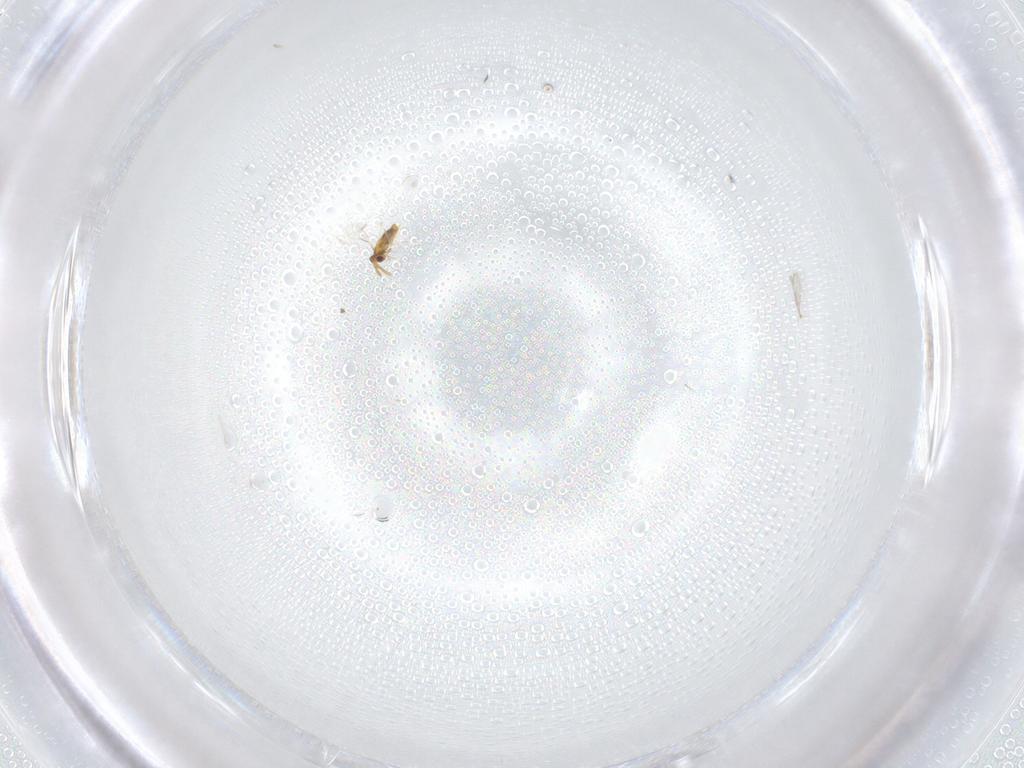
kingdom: Animalia
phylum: Arthropoda
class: Insecta
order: Hymenoptera
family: Aphelinidae
